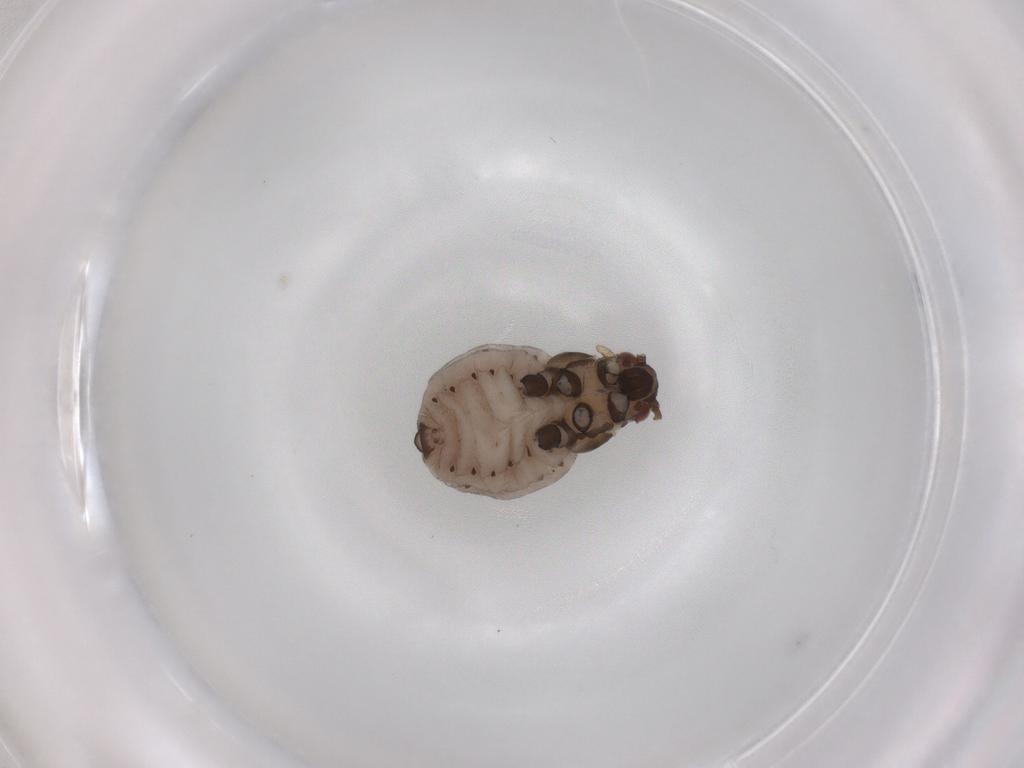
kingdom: Animalia
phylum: Arthropoda
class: Insecta
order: Hemiptera
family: Aphididae
